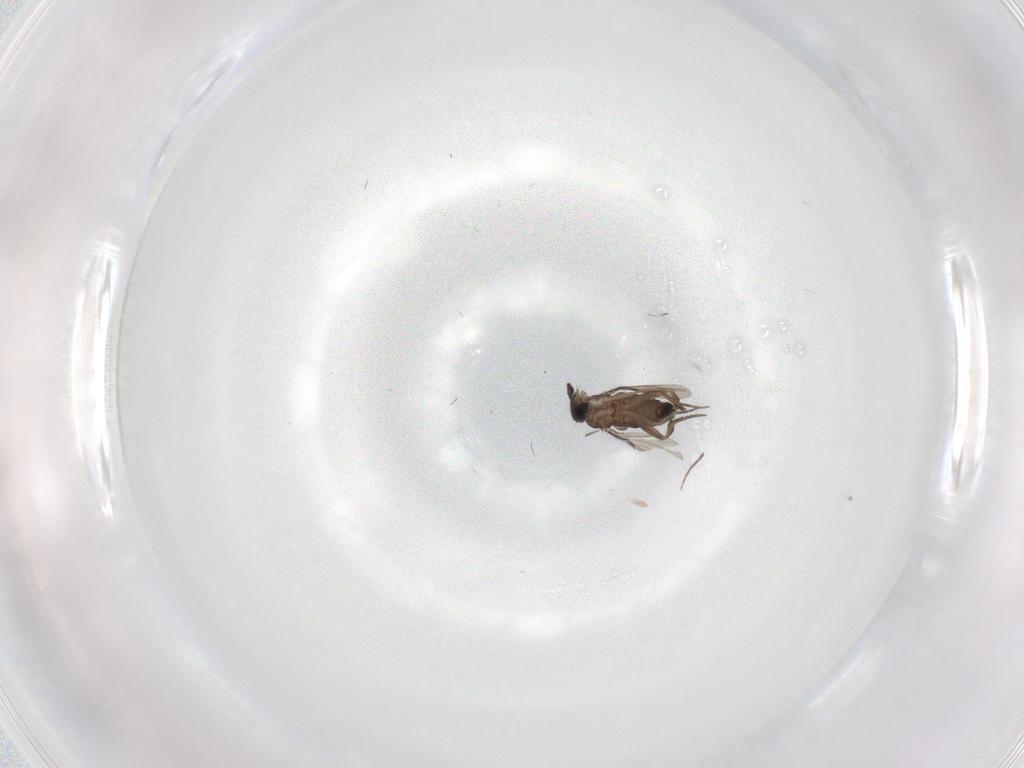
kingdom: Animalia
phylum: Arthropoda
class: Insecta
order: Diptera
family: Phoridae
